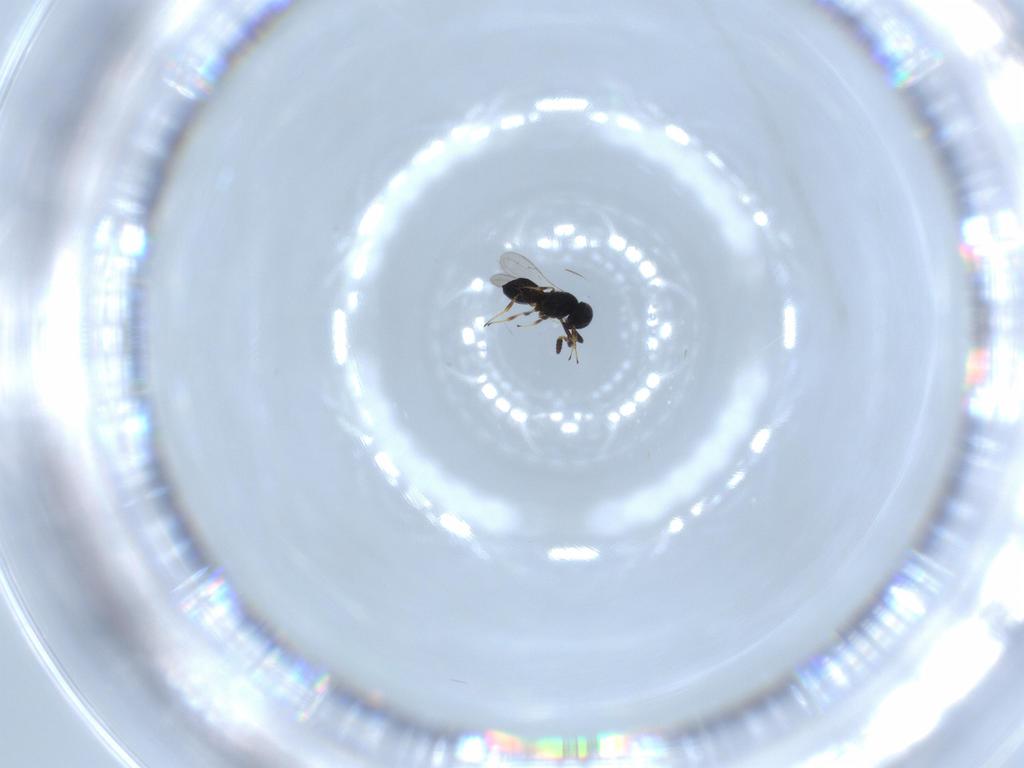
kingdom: Animalia
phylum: Arthropoda
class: Insecta
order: Hymenoptera
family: Scelionidae
